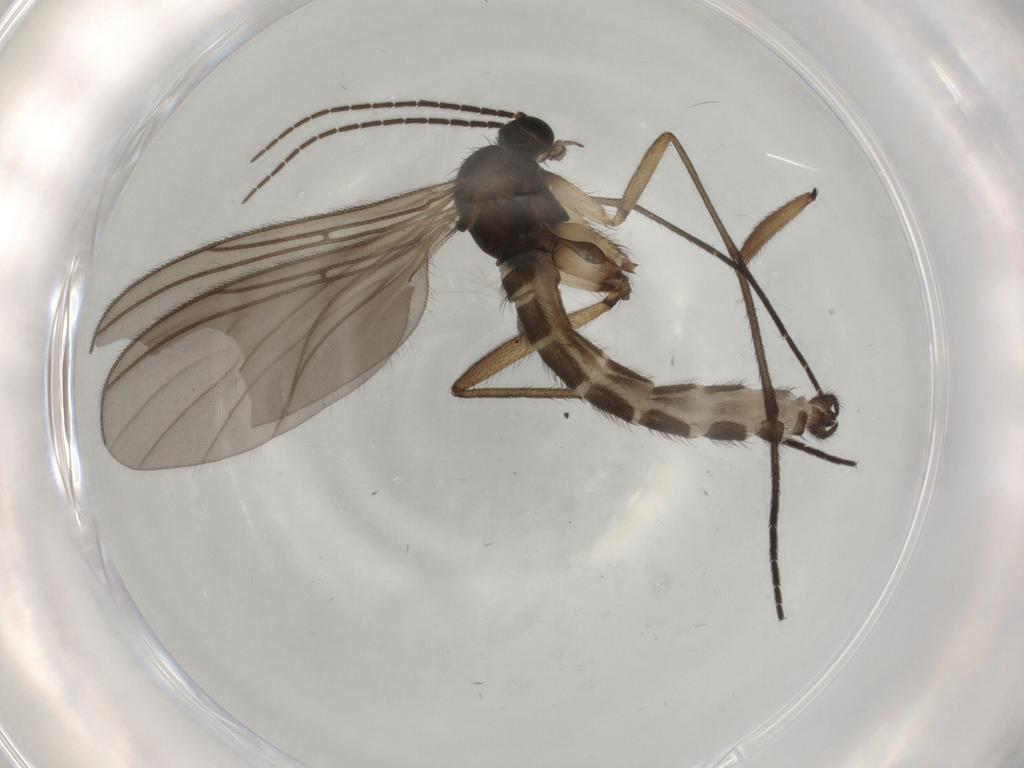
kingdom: Animalia
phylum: Arthropoda
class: Insecta
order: Diptera
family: Sciaridae
